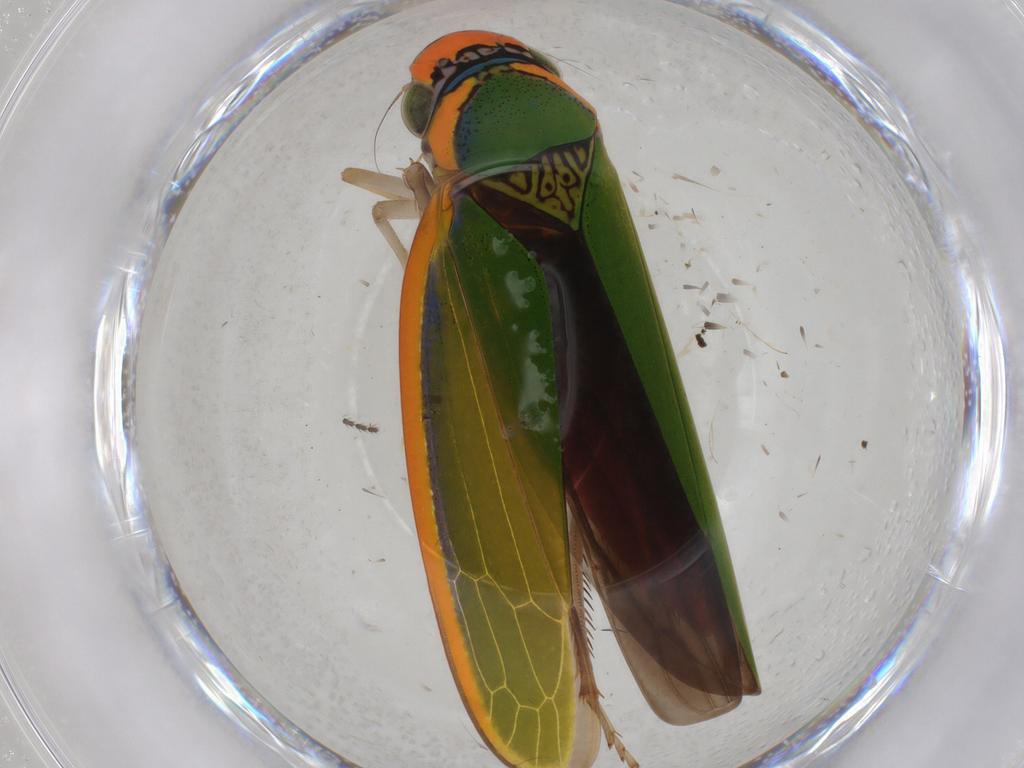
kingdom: Animalia
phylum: Arthropoda
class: Insecta
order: Hemiptera
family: Cicadellidae
